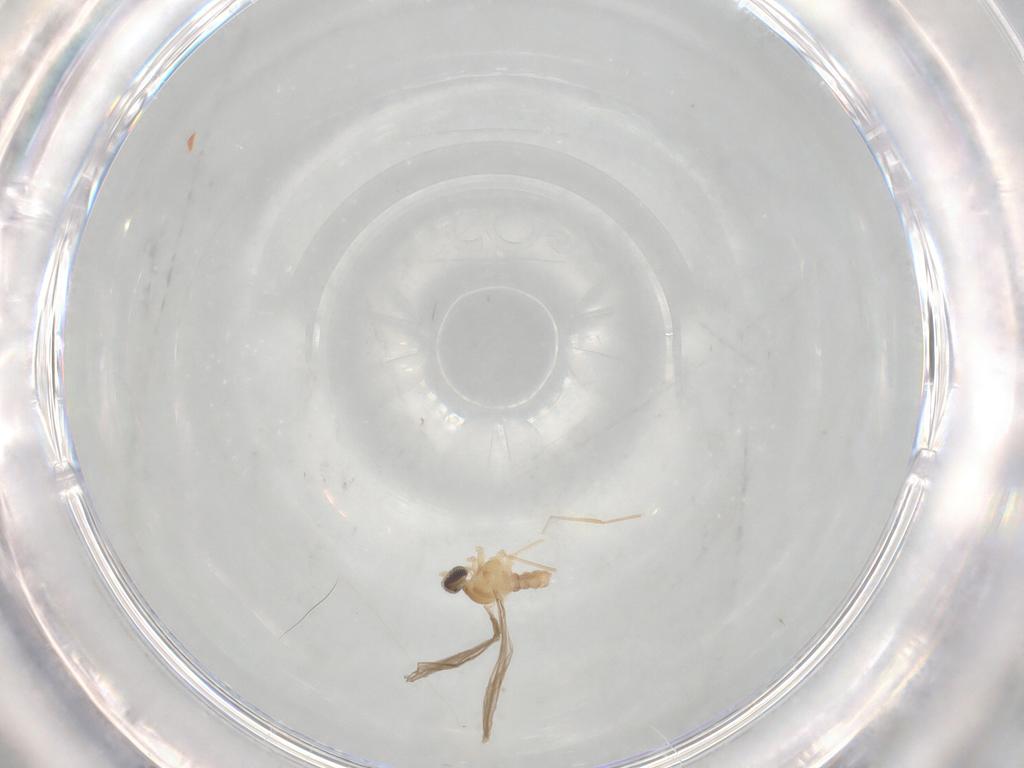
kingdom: Animalia
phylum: Arthropoda
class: Insecta
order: Diptera
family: Cecidomyiidae
